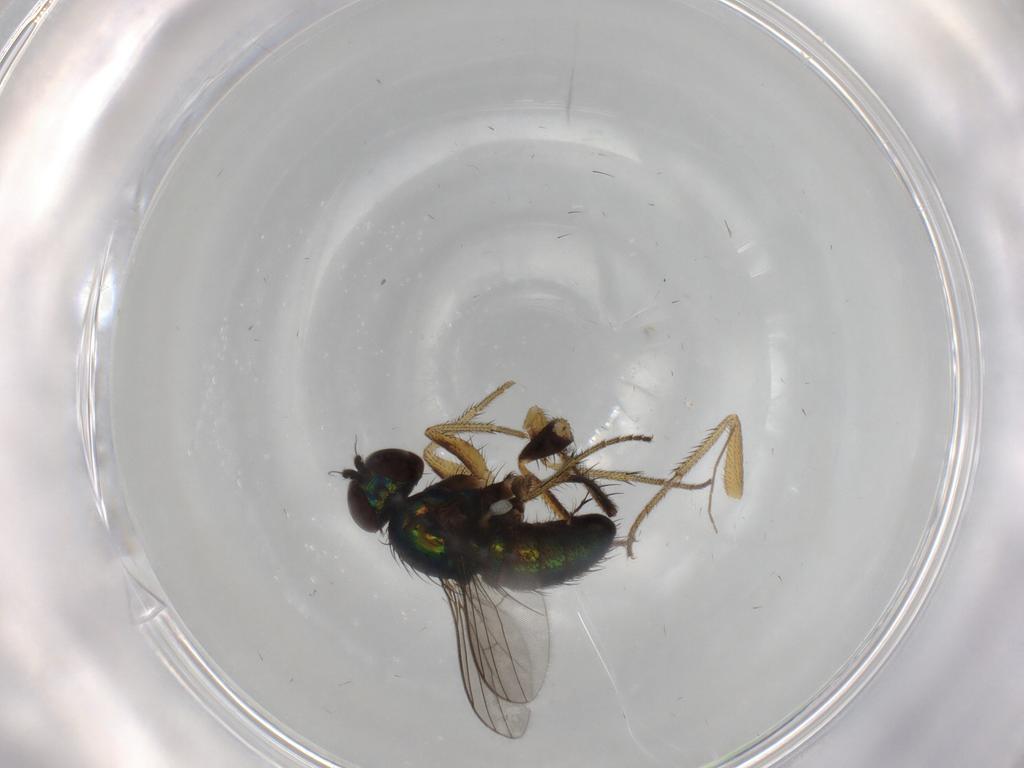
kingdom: Animalia
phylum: Arthropoda
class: Insecta
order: Diptera
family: Dolichopodidae
